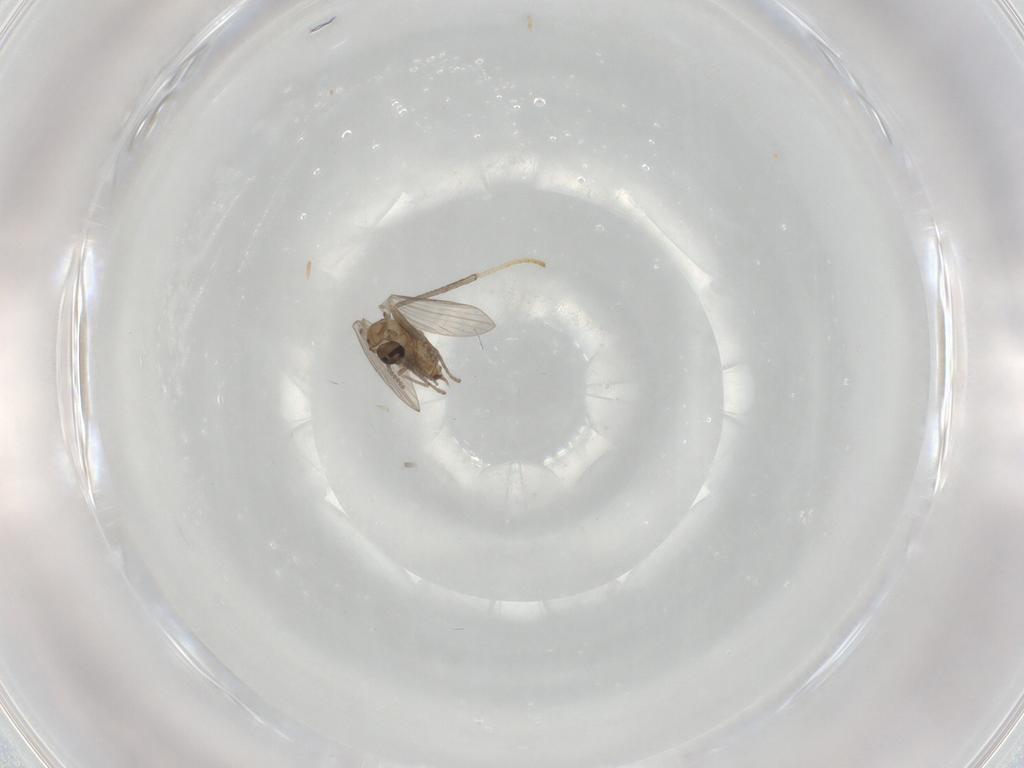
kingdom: Animalia
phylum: Arthropoda
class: Insecta
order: Diptera
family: Psychodidae
